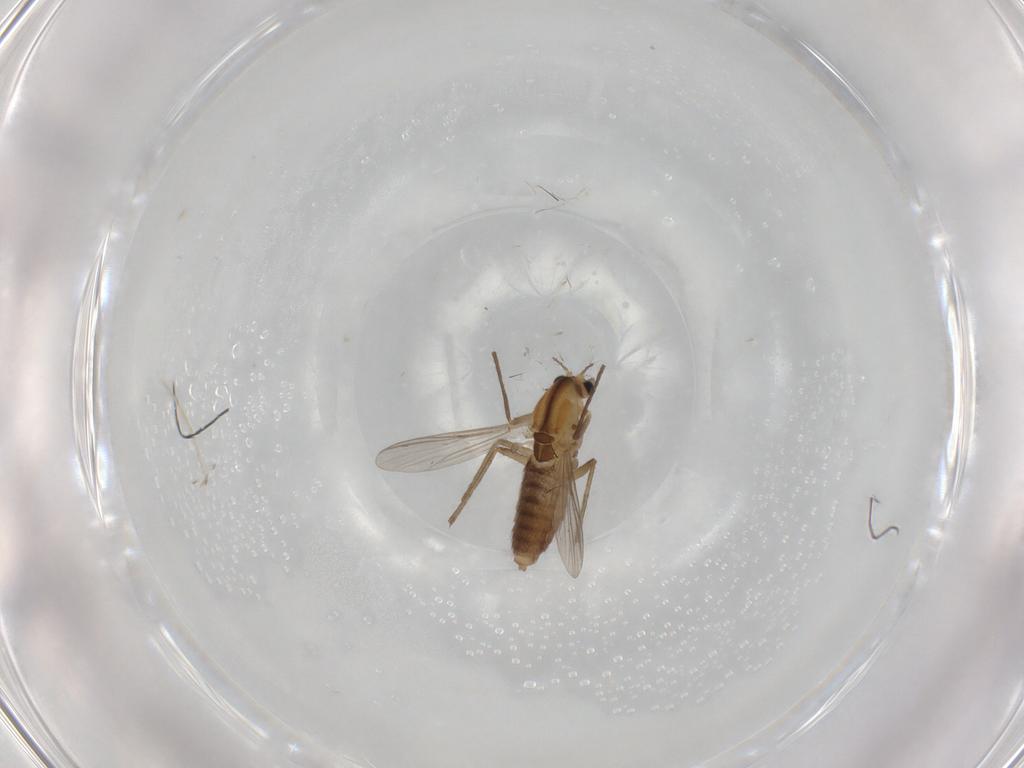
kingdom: Animalia
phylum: Arthropoda
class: Insecta
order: Diptera
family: Chironomidae
